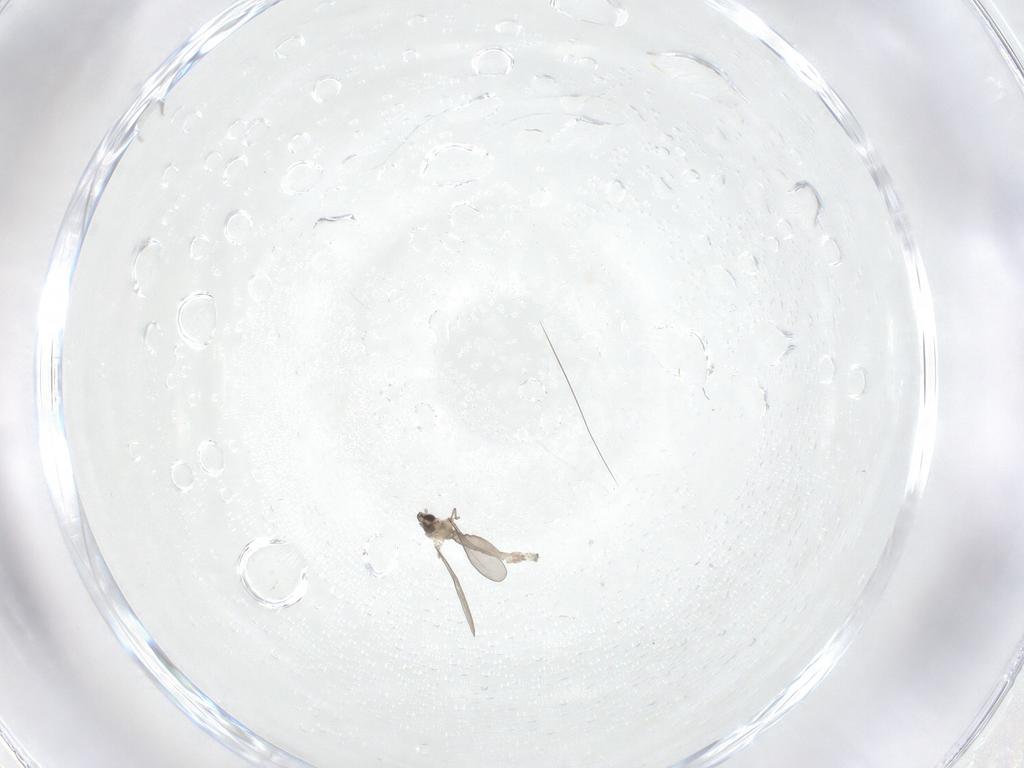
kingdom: Animalia
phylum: Arthropoda
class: Insecta
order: Diptera
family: Cecidomyiidae
